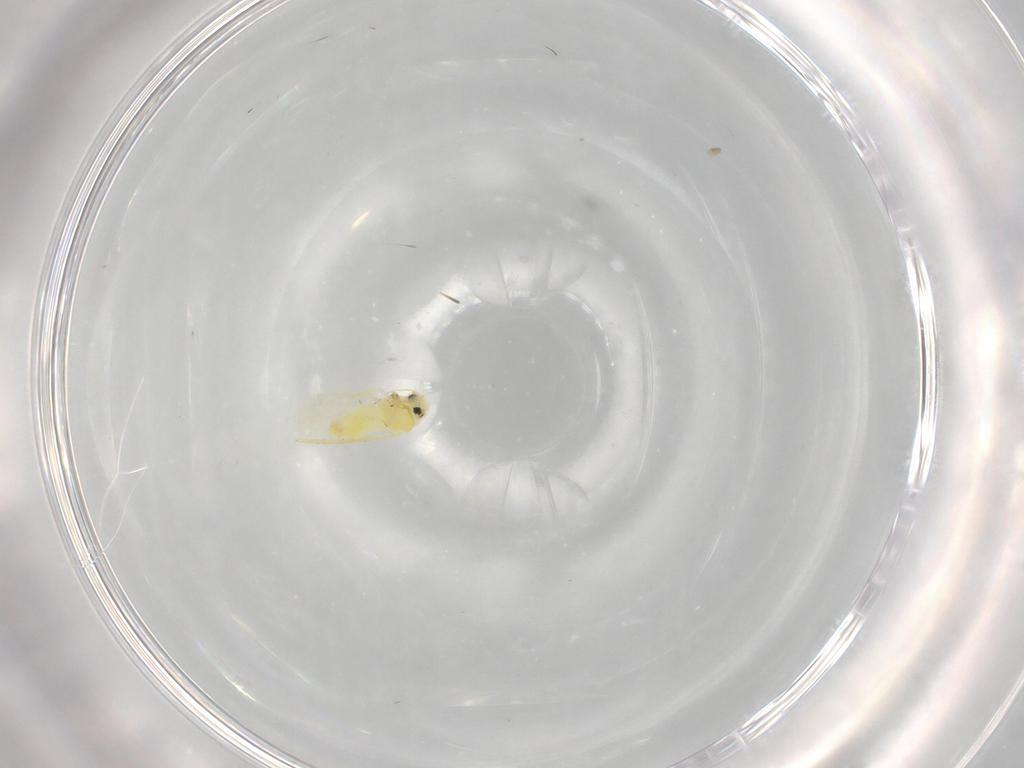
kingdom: Animalia
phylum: Arthropoda
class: Insecta
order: Hemiptera
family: Aleyrodidae
